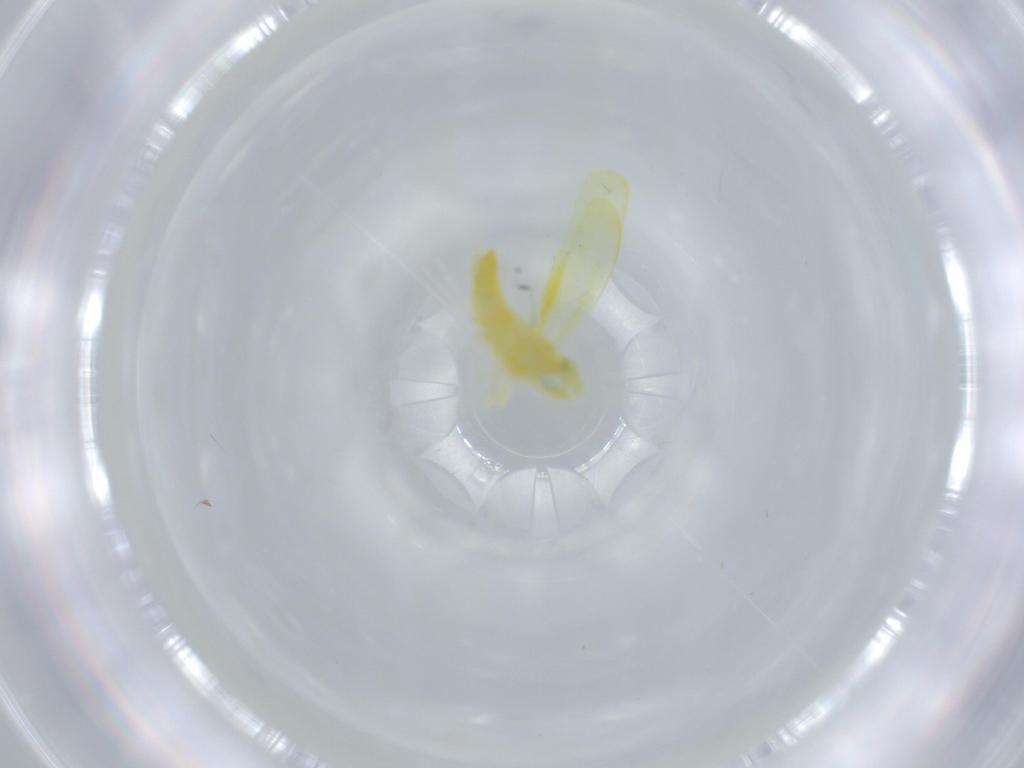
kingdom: Animalia
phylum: Arthropoda
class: Insecta
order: Hemiptera
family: Cicadellidae
